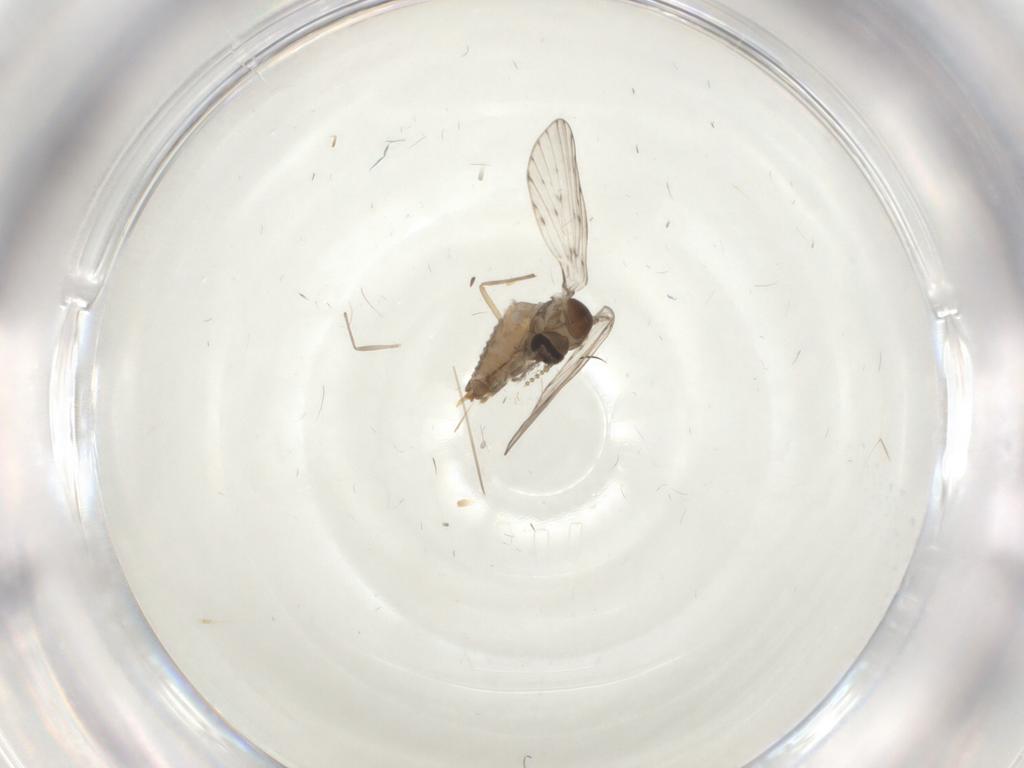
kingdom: Animalia
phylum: Arthropoda
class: Insecta
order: Diptera
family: Psychodidae
